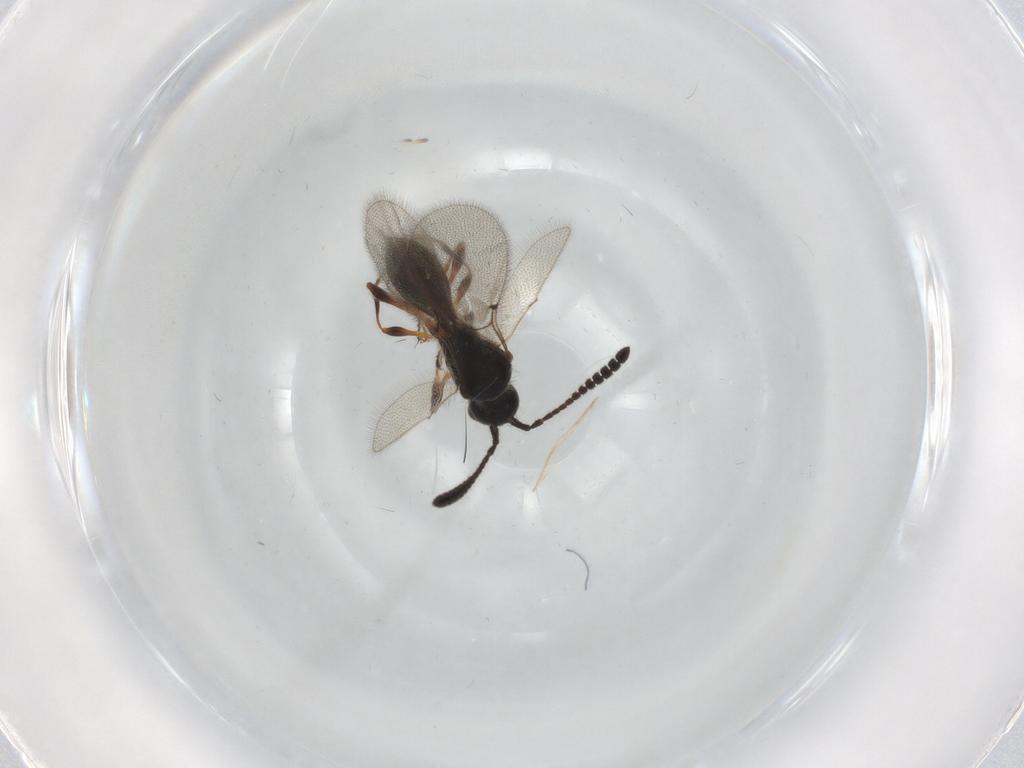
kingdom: Animalia
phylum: Arthropoda
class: Insecta
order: Hymenoptera
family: Diapriidae
